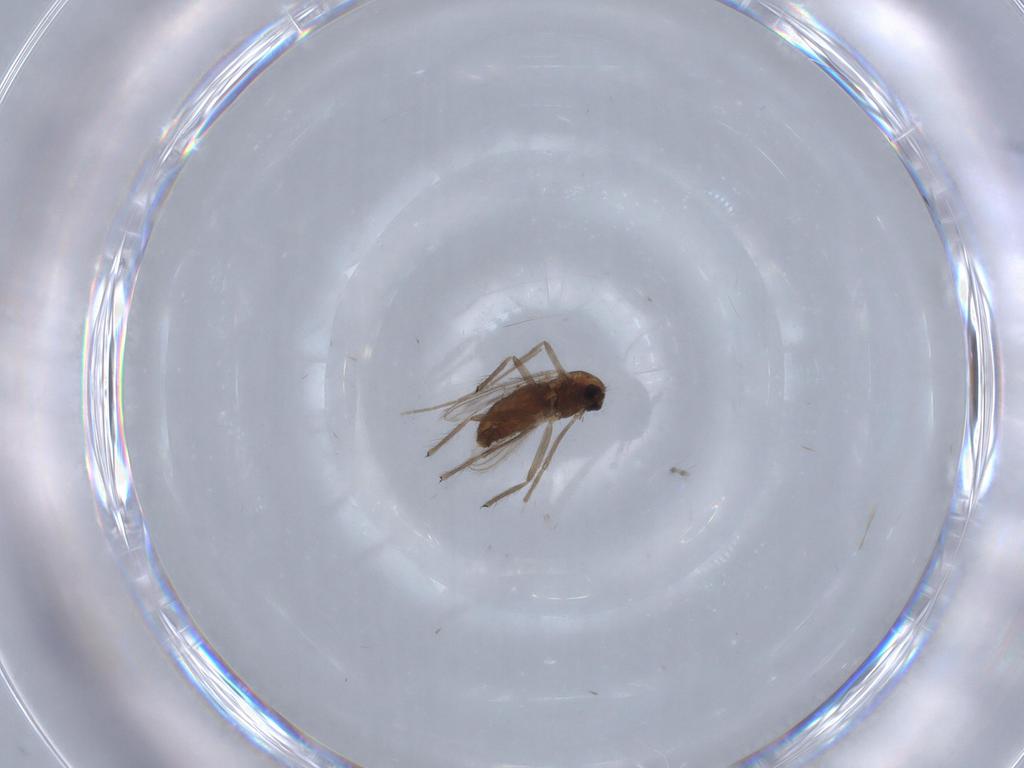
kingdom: Animalia
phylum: Arthropoda
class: Insecta
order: Diptera
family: Chironomidae
